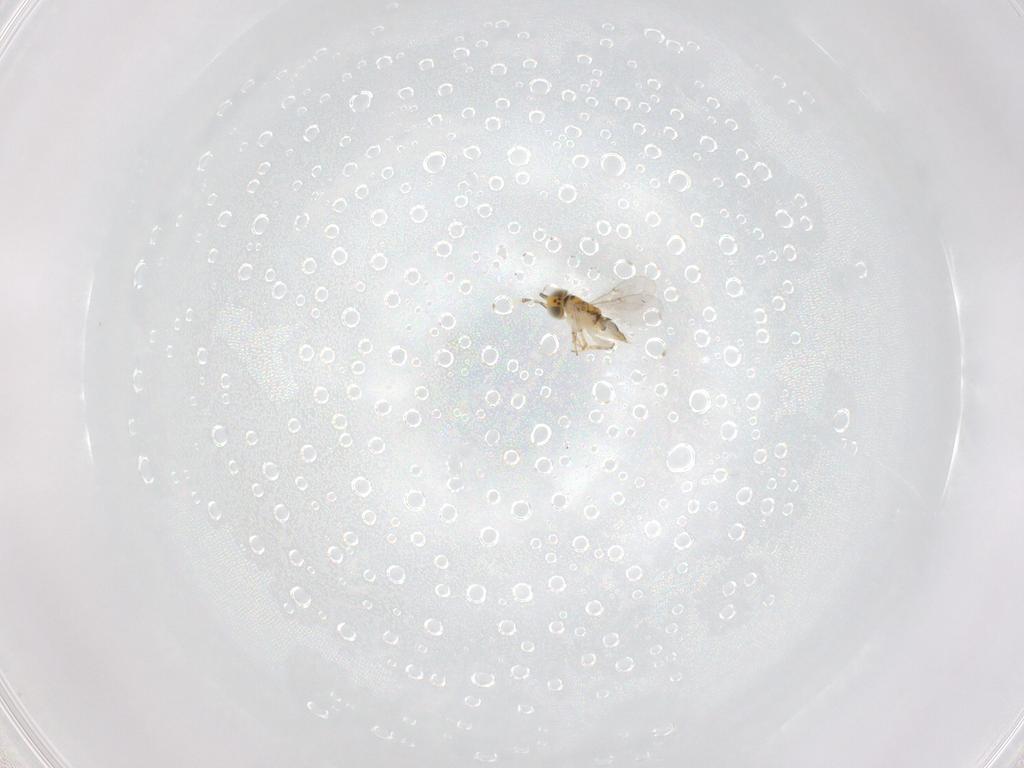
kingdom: Animalia
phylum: Arthropoda
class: Insecta
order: Hymenoptera
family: Encyrtidae
